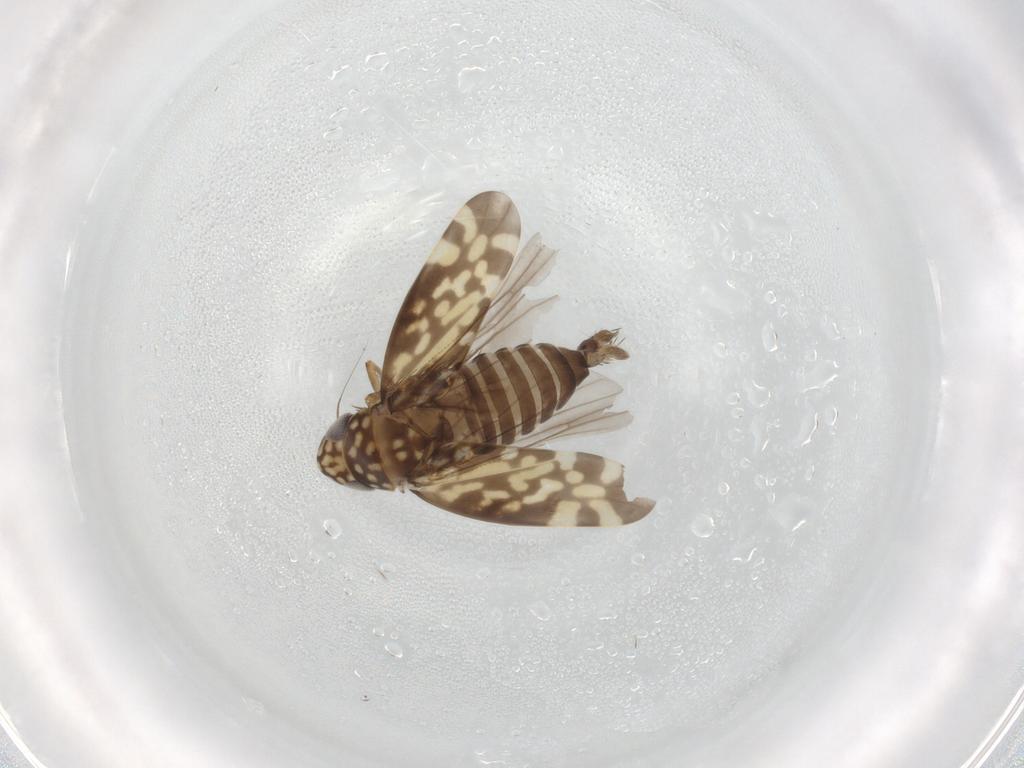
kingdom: Animalia
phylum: Arthropoda
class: Insecta
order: Hemiptera
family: Cicadellidae
